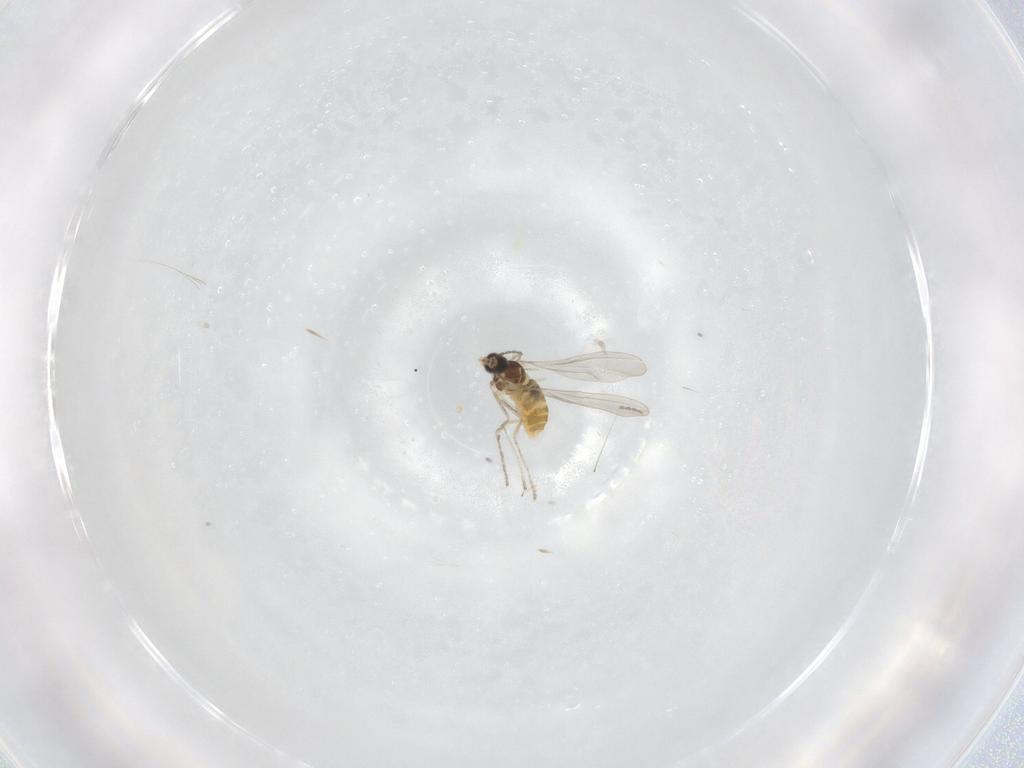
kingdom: Animalia
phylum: Arthropoda
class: Insecta
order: Diptera
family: Cecidomyiidae
